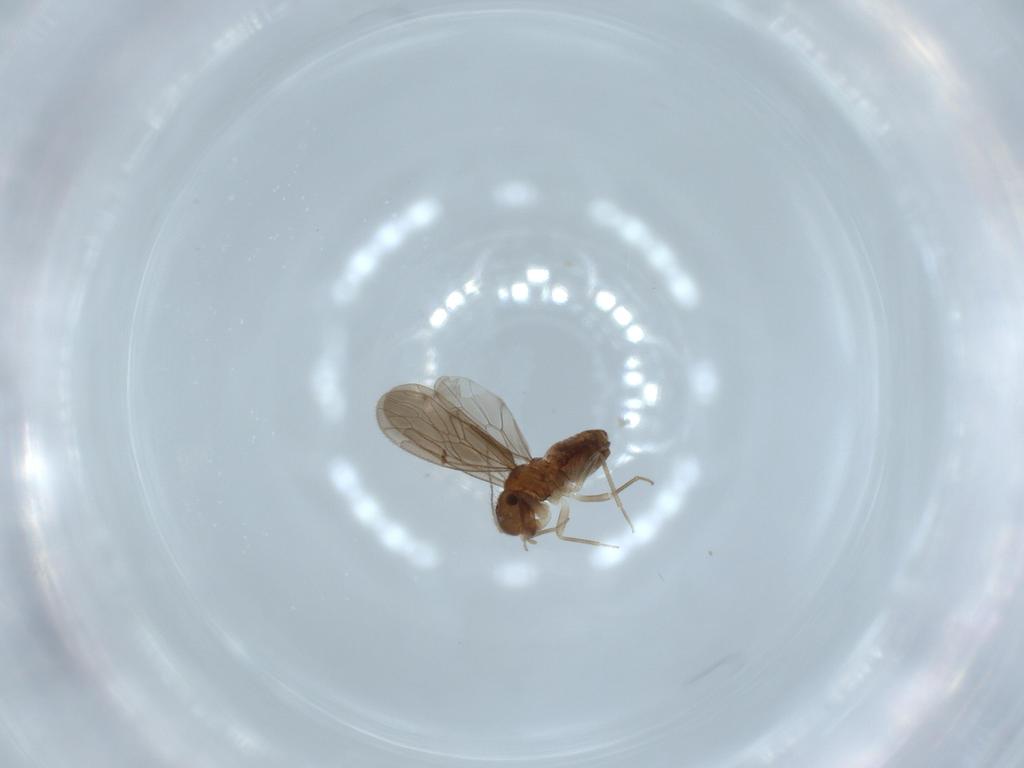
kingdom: Animalia
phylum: Arthropoda
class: Insecta
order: Psocodea
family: Ectopsocidae
